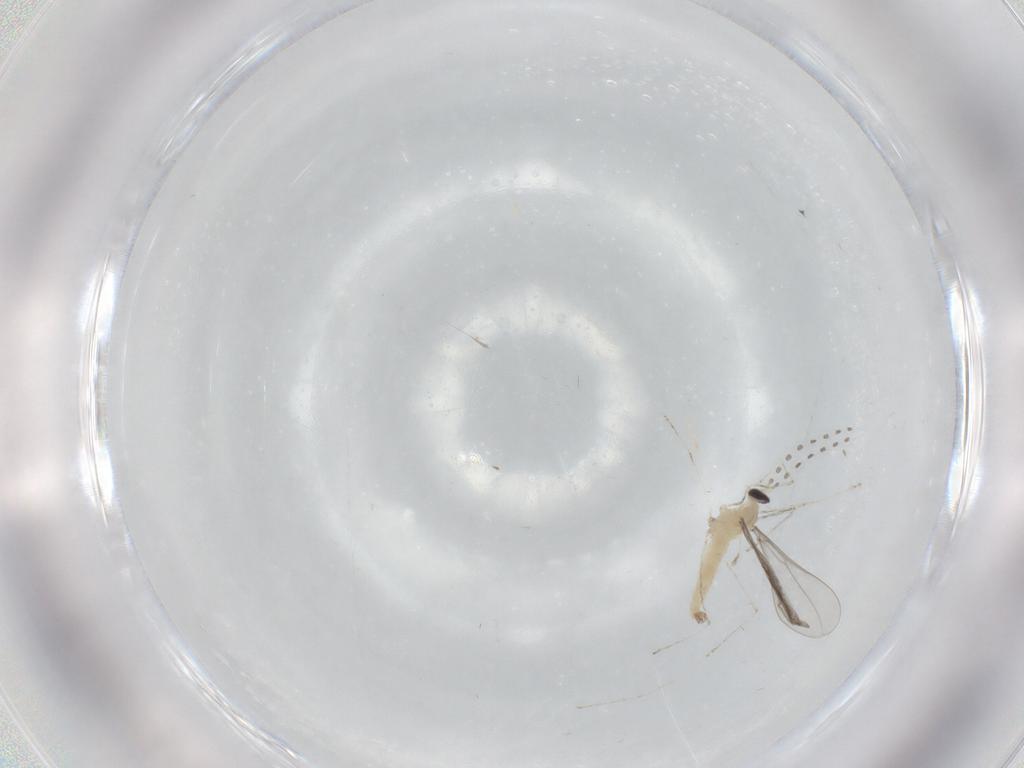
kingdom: Animalia
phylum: Arthropoda
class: Insecta
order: Diptera
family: Cecidomyiidae
